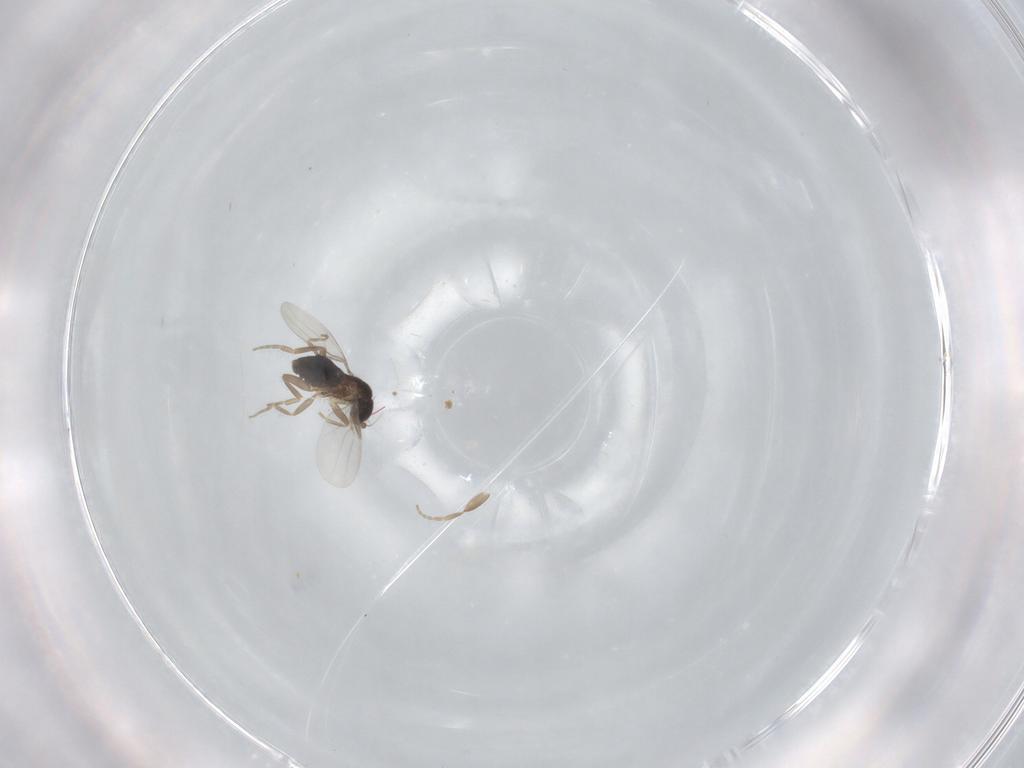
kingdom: Animalia
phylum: Arthropoda
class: Insecta
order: Diptera
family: Phoridae
